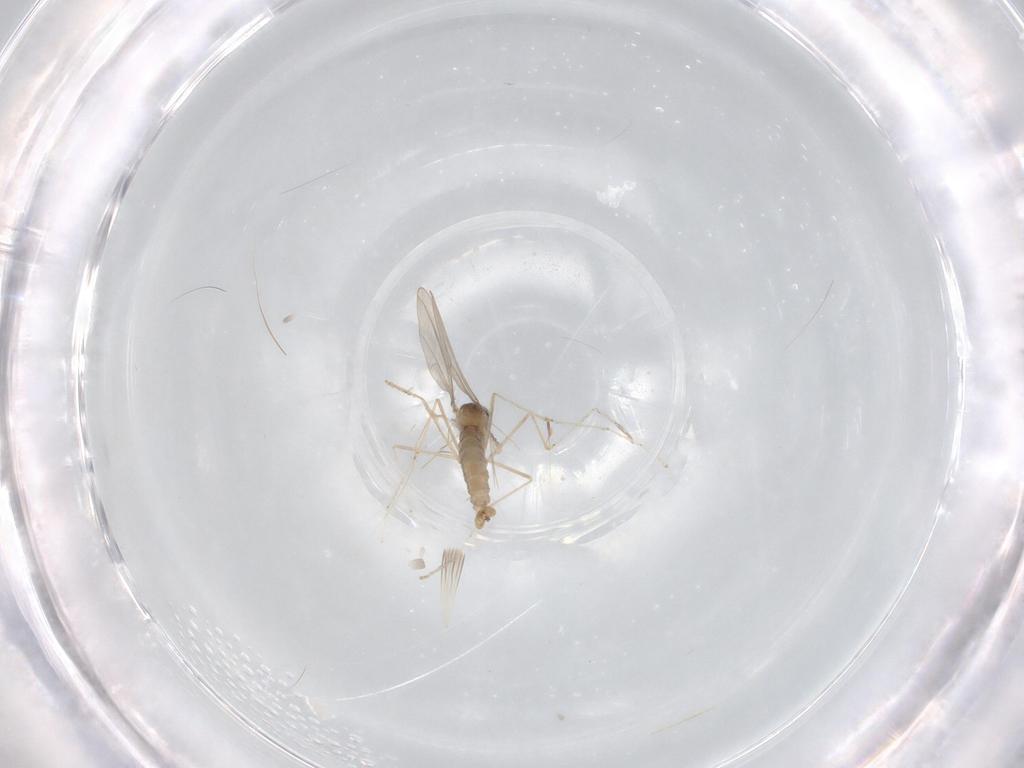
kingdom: Animalia
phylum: Arthropoda
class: Insecta
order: Diptera
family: Chironomidae
